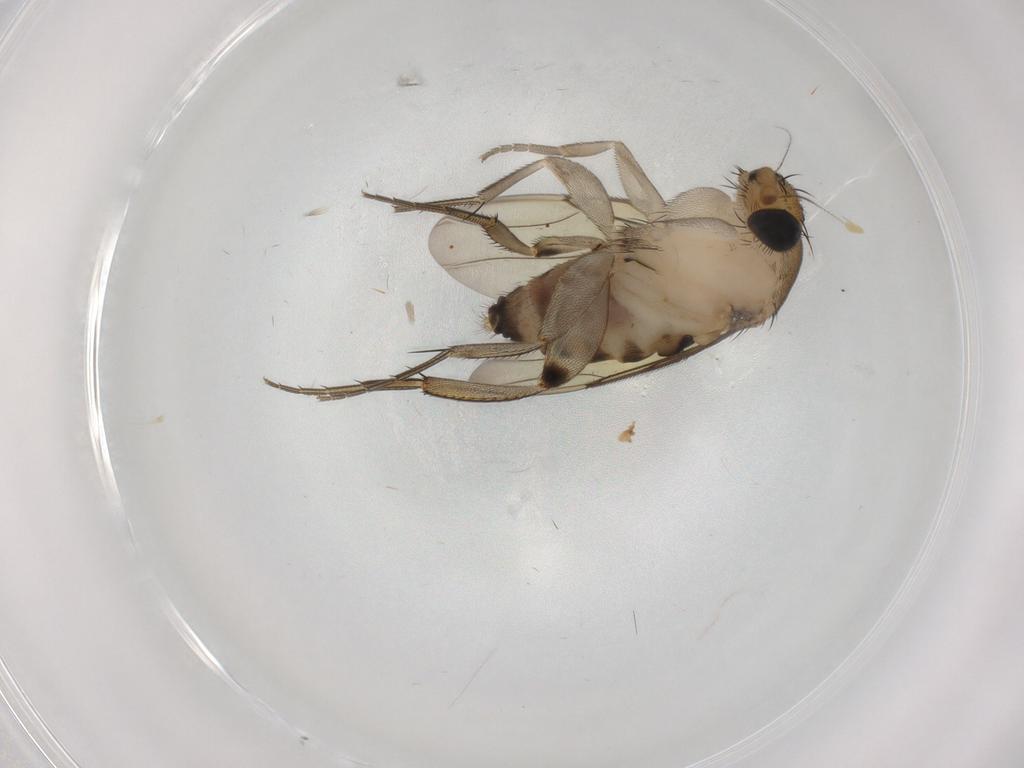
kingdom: Animalia
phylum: Arthropoda
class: Insecta
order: Diptera
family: Phoridae
